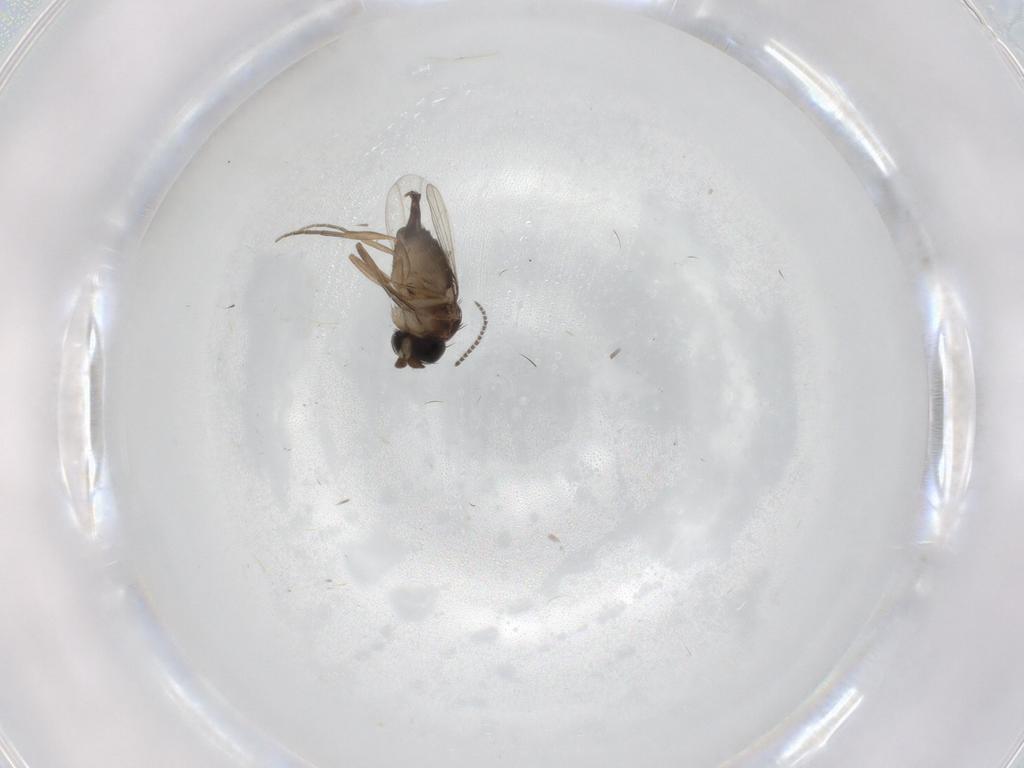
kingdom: Animalia
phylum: Arthropoda
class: Insecta
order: Diptera
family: Phoridae
